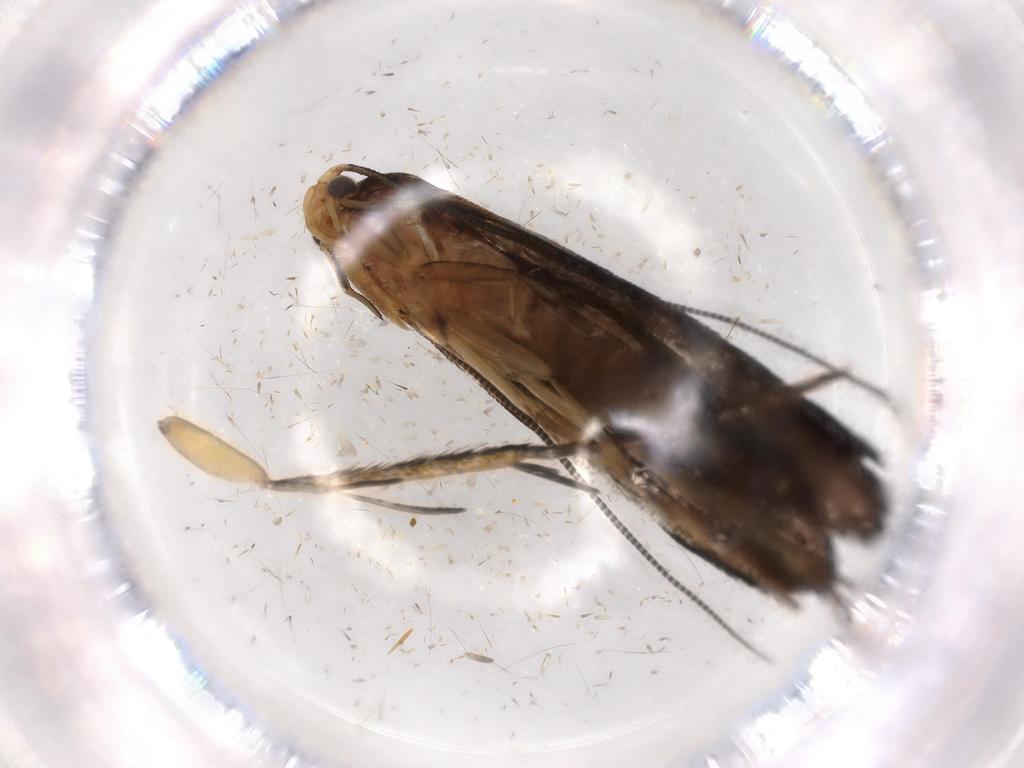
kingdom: Animalia
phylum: Arthropoda
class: Insecta
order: Lepidoptera
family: Tineidae
